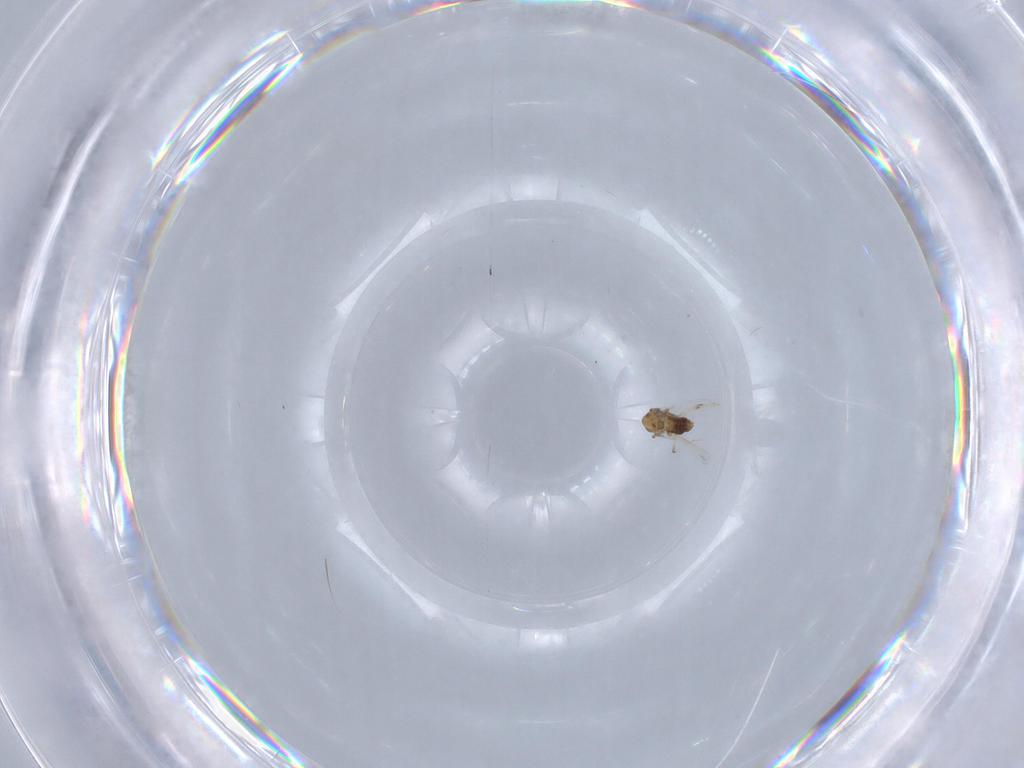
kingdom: Animalia
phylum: Arthropoda
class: Insecta
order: Diptera
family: Chironomidae
